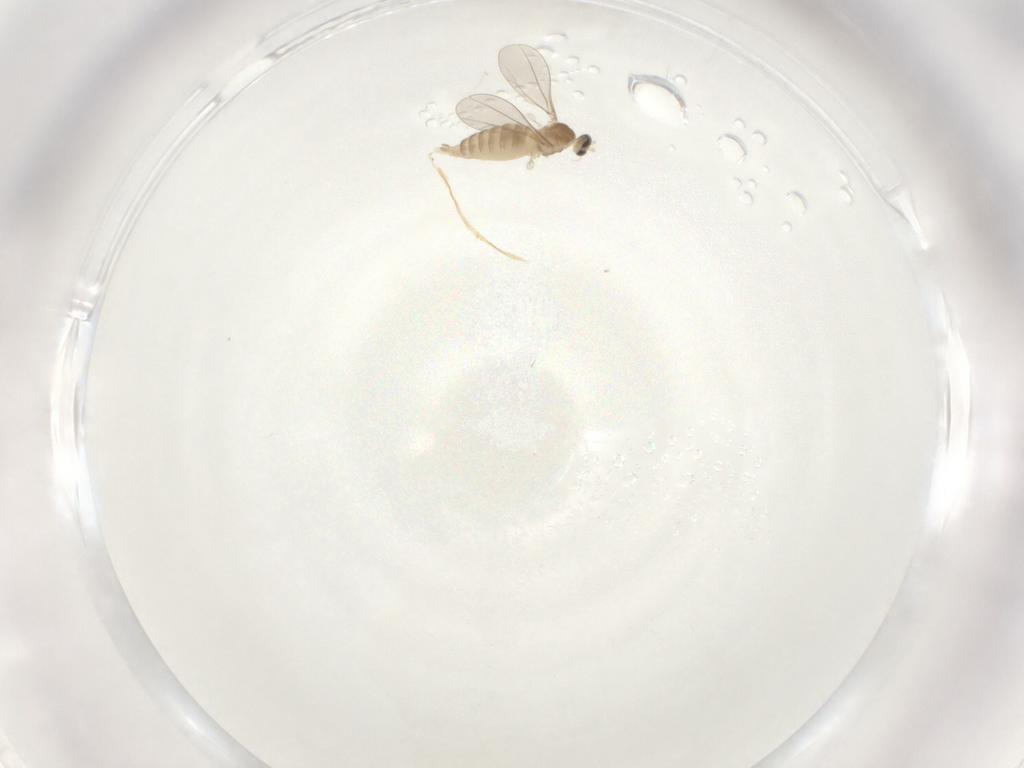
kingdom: Animalia
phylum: Arthropoda
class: Insecta
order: Diptera
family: Cecidomyiidae
